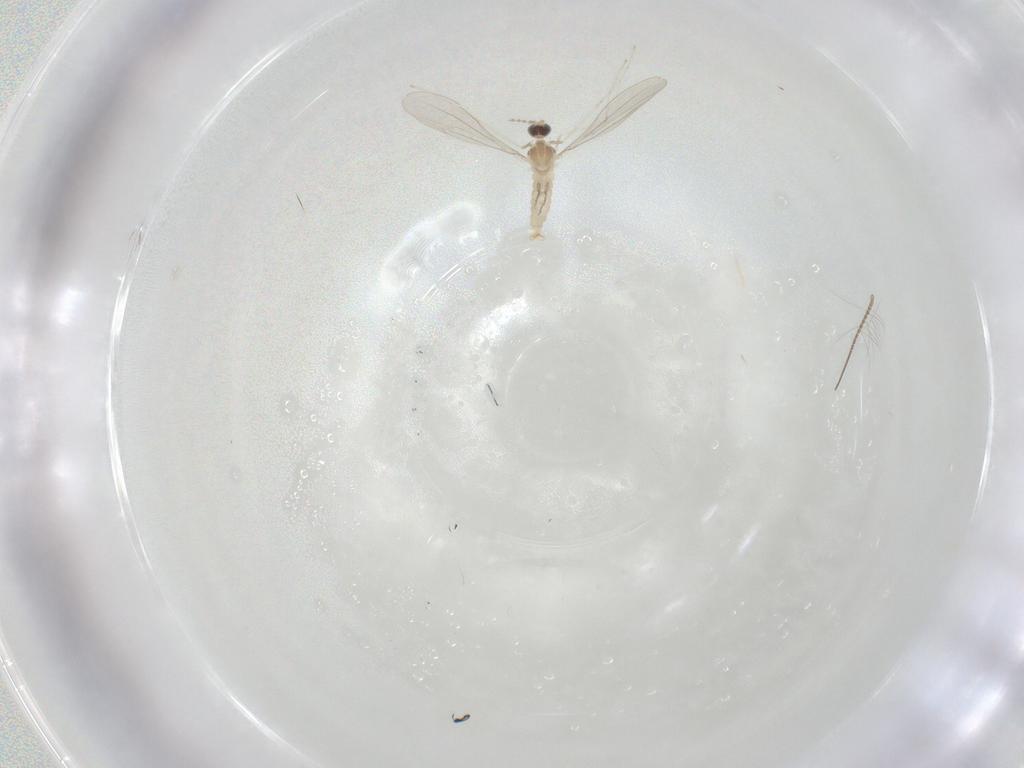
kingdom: Animalia
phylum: Arthropoda
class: Insecta
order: Diptera
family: Cecidomyiidae
